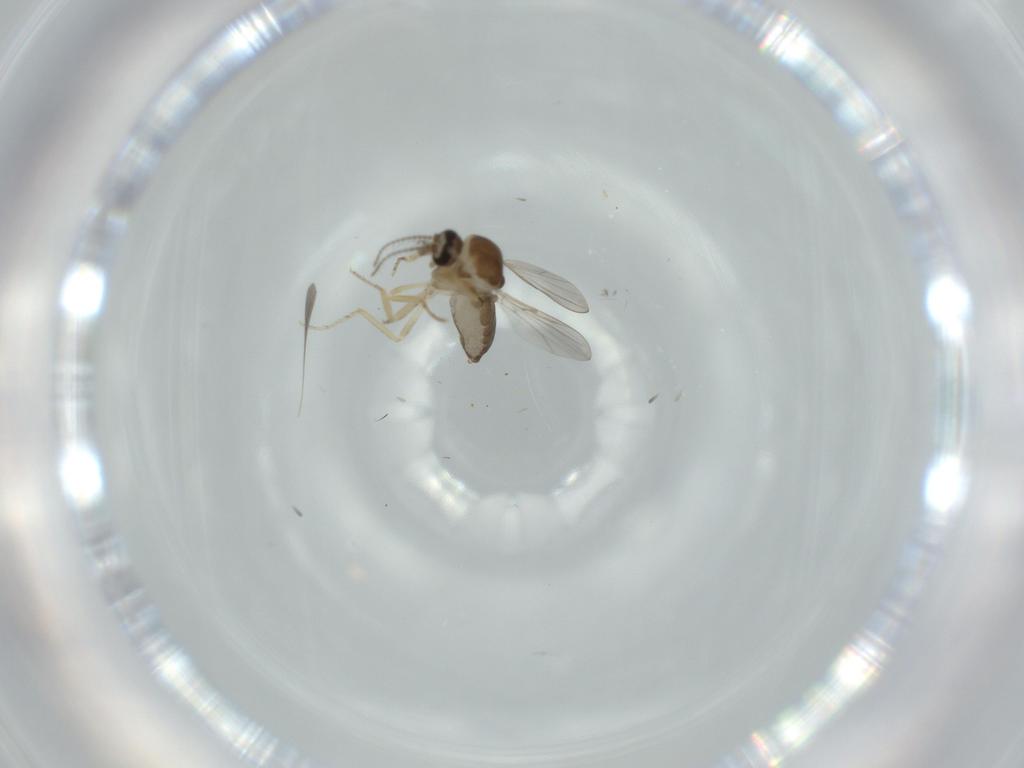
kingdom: Animalia
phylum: Arthropoda
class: Insecta
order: Diptera
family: Ceratopogonidae
